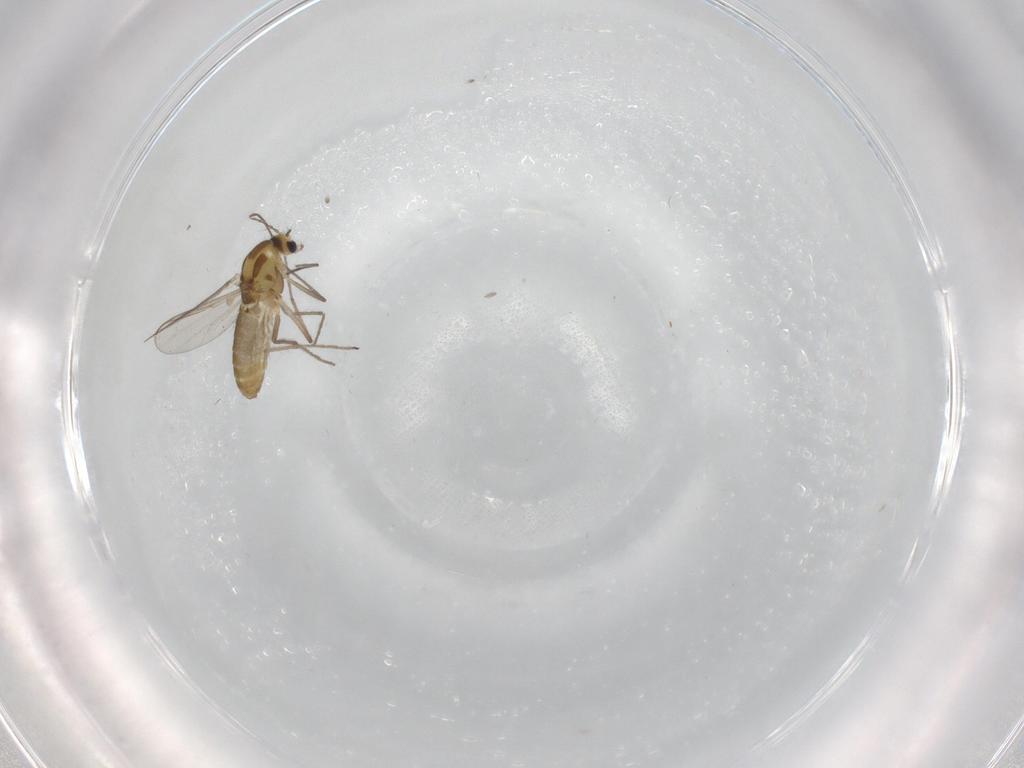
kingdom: Animalia
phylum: Arthropoda
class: Insecta
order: Diptera
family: Chironomidae
